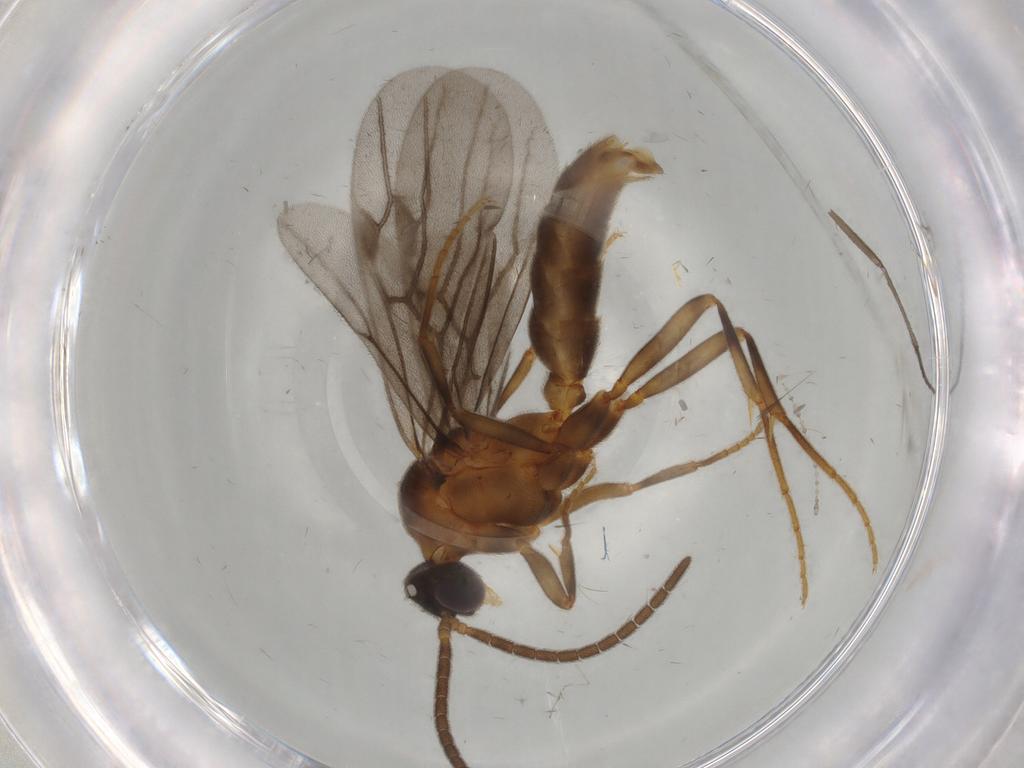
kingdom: Animalia
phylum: Arthropoda
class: Insecta
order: Hymenoptera
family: Formicidae
